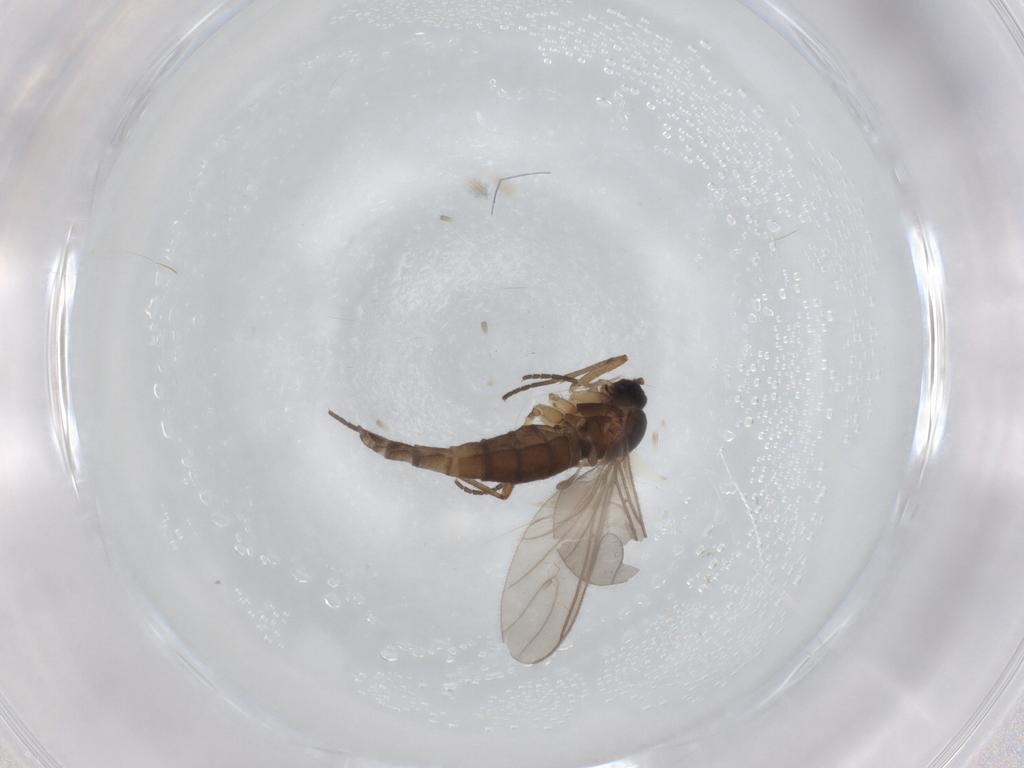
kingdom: Animalia
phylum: Arthropoda
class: Insecta
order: Diptera
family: Sciaridae
